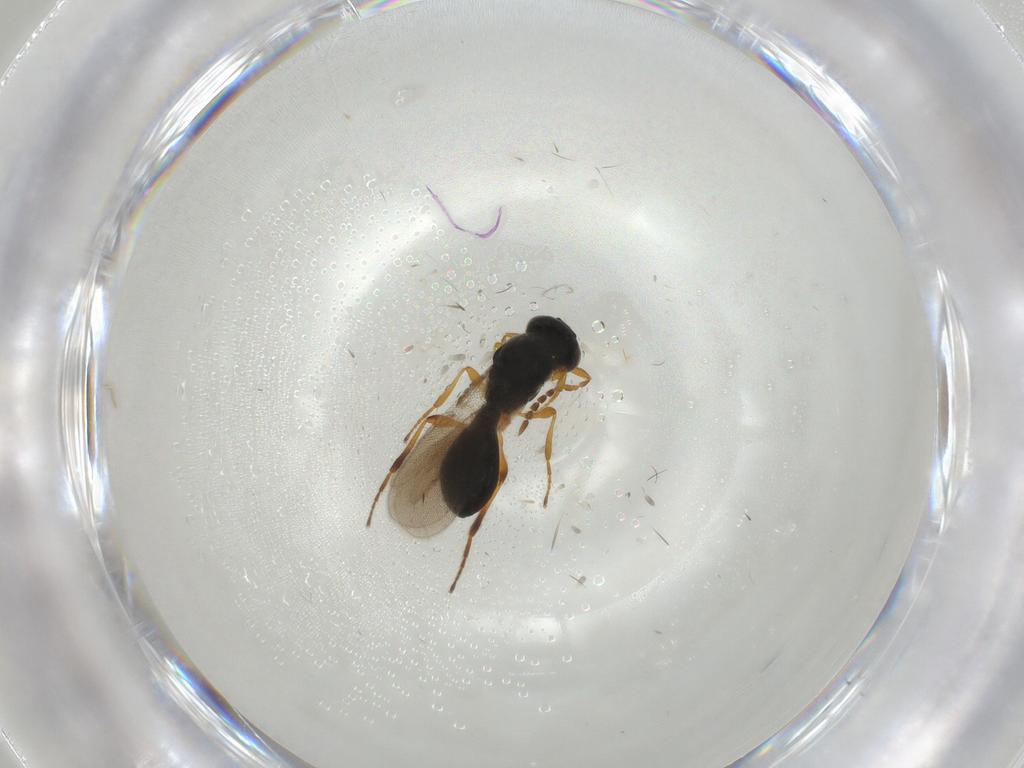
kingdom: Animalia
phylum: Arthropoda
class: Insecta
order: Hymenoptera
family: Platygastridae
